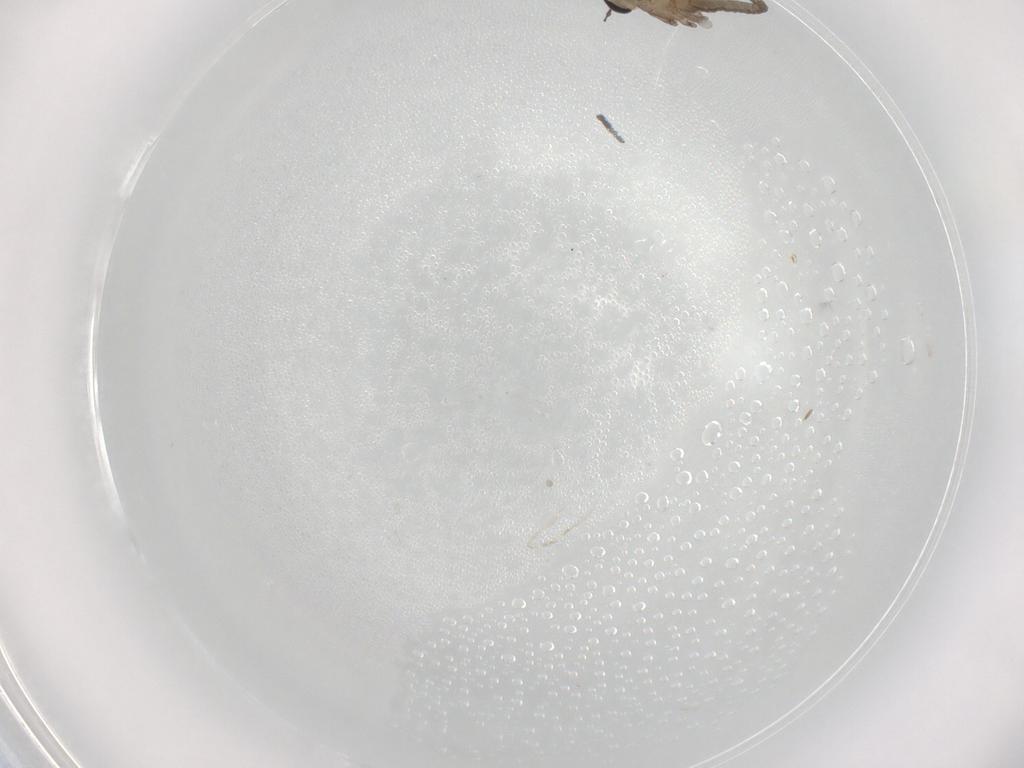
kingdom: Animalia
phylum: Arthropoda
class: Insecta
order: Diptera
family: Cecidomyiidae
